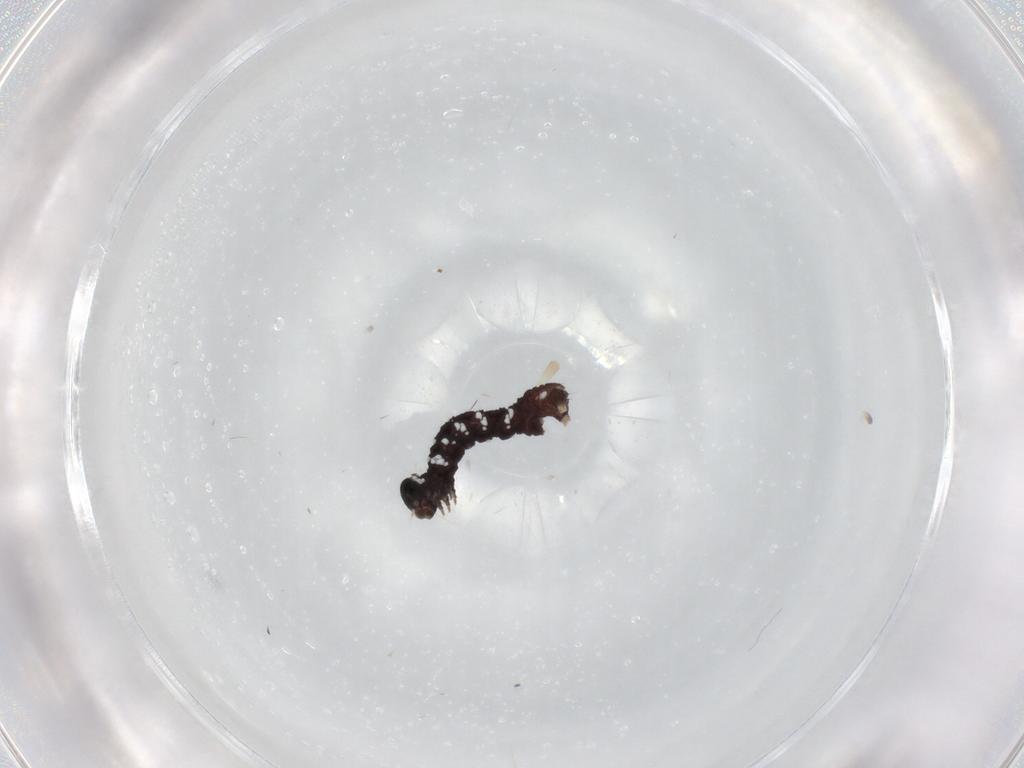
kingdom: Animalia
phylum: Arthropoda
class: Insecta
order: Lepidoptera
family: Geometridae
